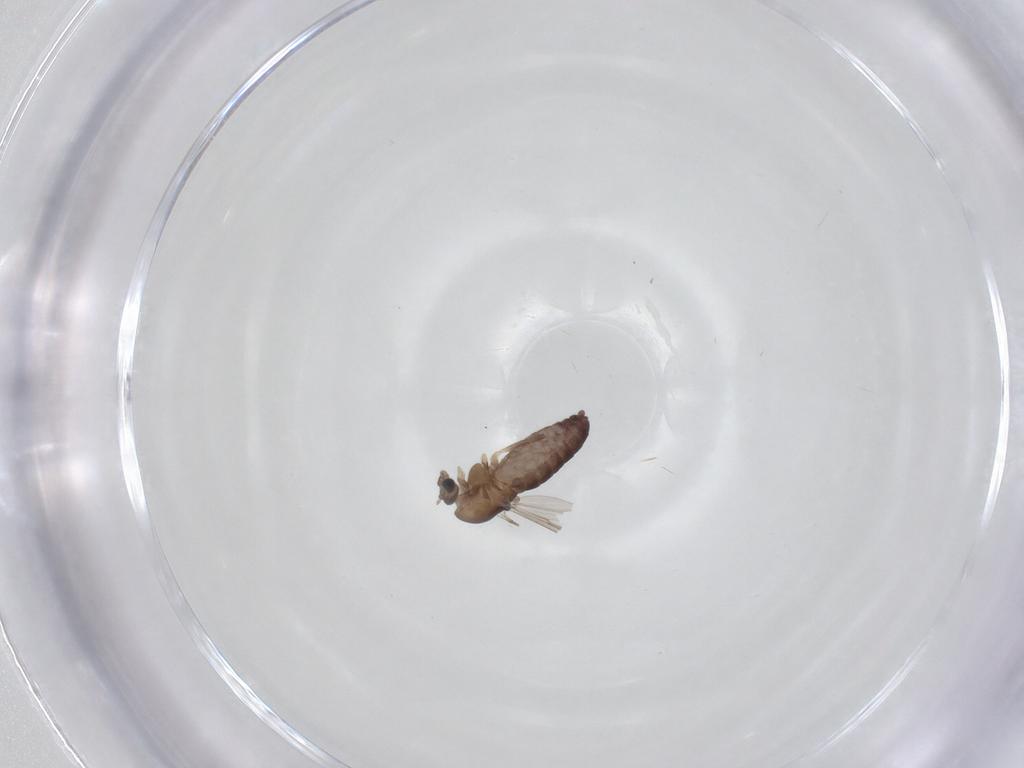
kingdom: Animalia
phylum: Arthropoda
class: Insecta
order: Diptera
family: Chironomidae
